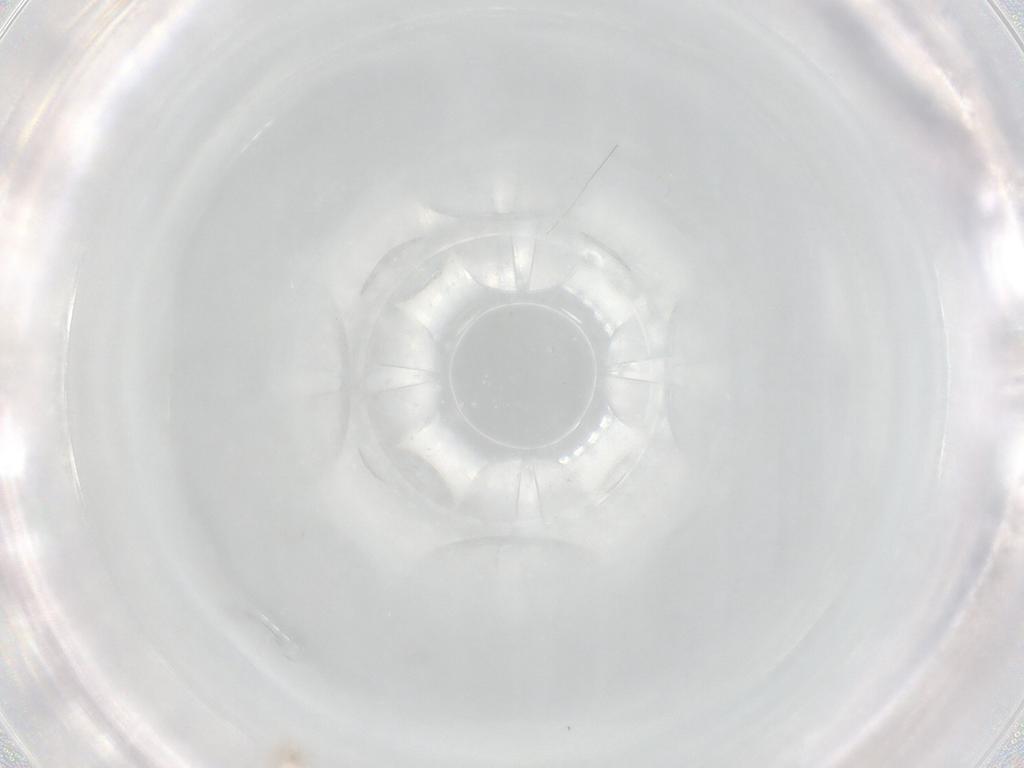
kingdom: Animalia
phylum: Arthropoda
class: Arachnida
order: Trombidiformes
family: Microtrombidiidae
